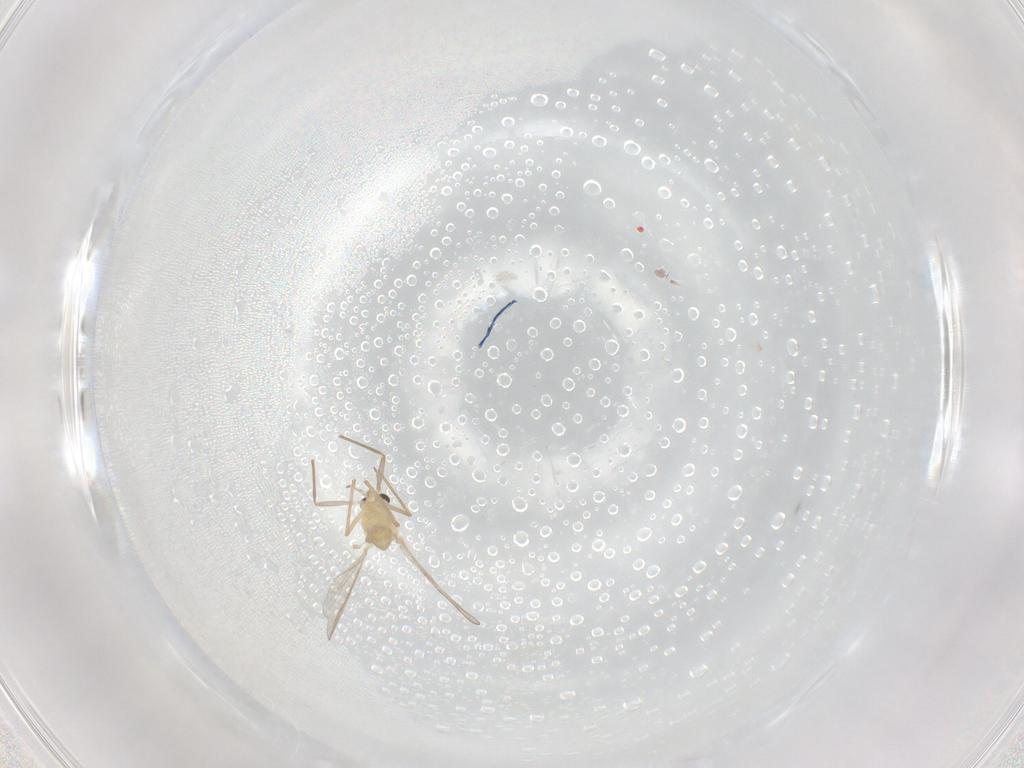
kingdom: Animalia
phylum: Arthropoda
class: Insecta
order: Diptera
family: Chironomidae
